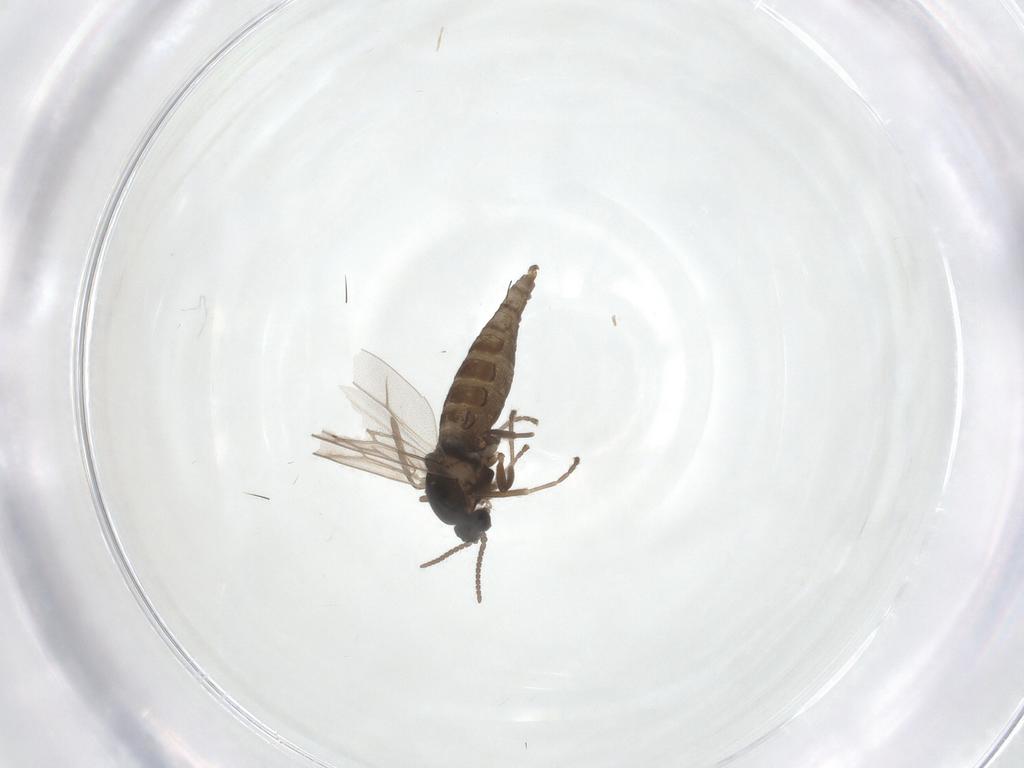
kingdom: Animalia
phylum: Arthropoda
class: Insecta
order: Diptera
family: Cecidomyiidae
